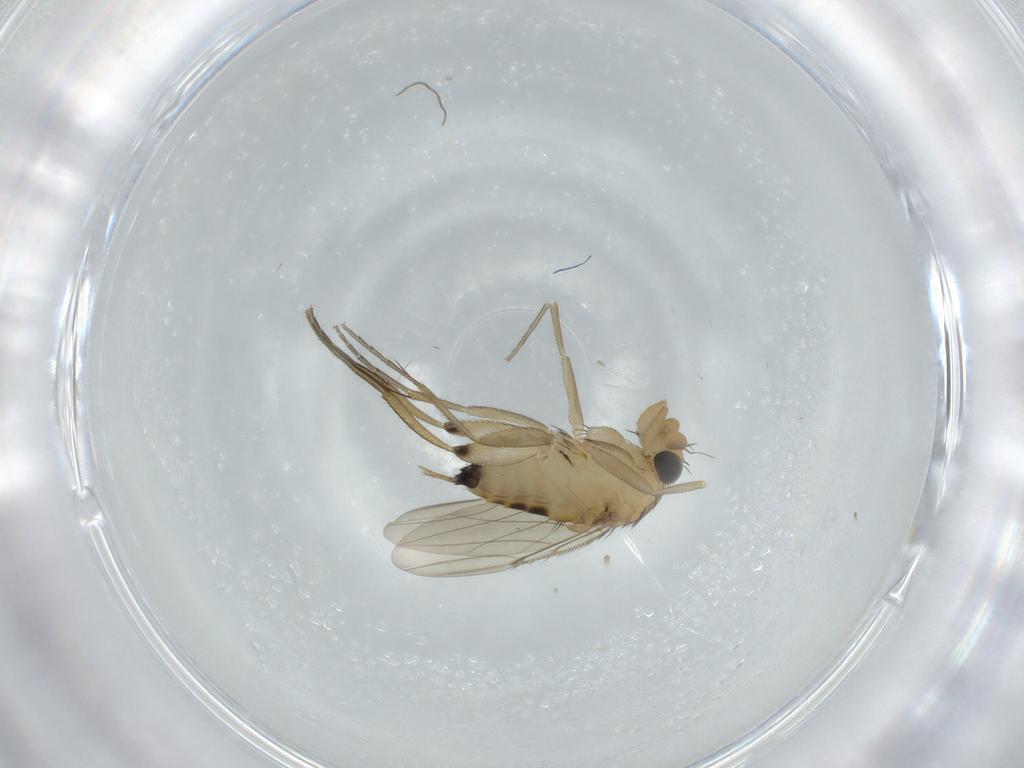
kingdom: Animalia
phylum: Arthropoda
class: Insecta
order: Diptera
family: Phoridae
